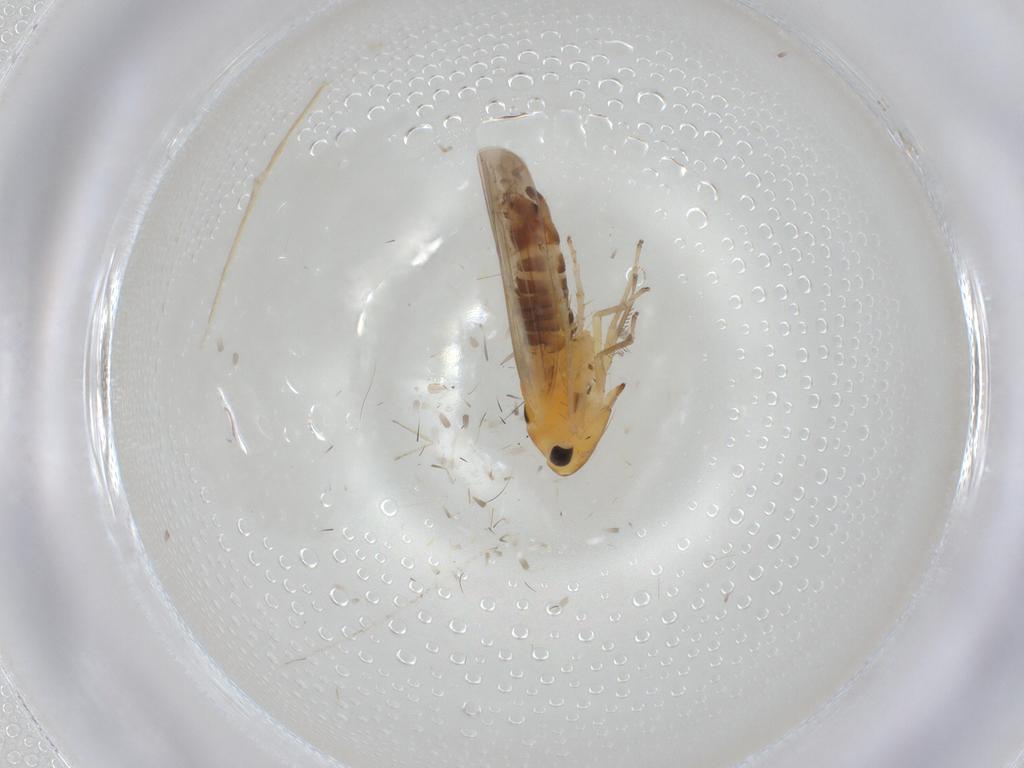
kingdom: Animalia
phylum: Arthropoda
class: Insecta
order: Hemiptera
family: Cicadellidae
